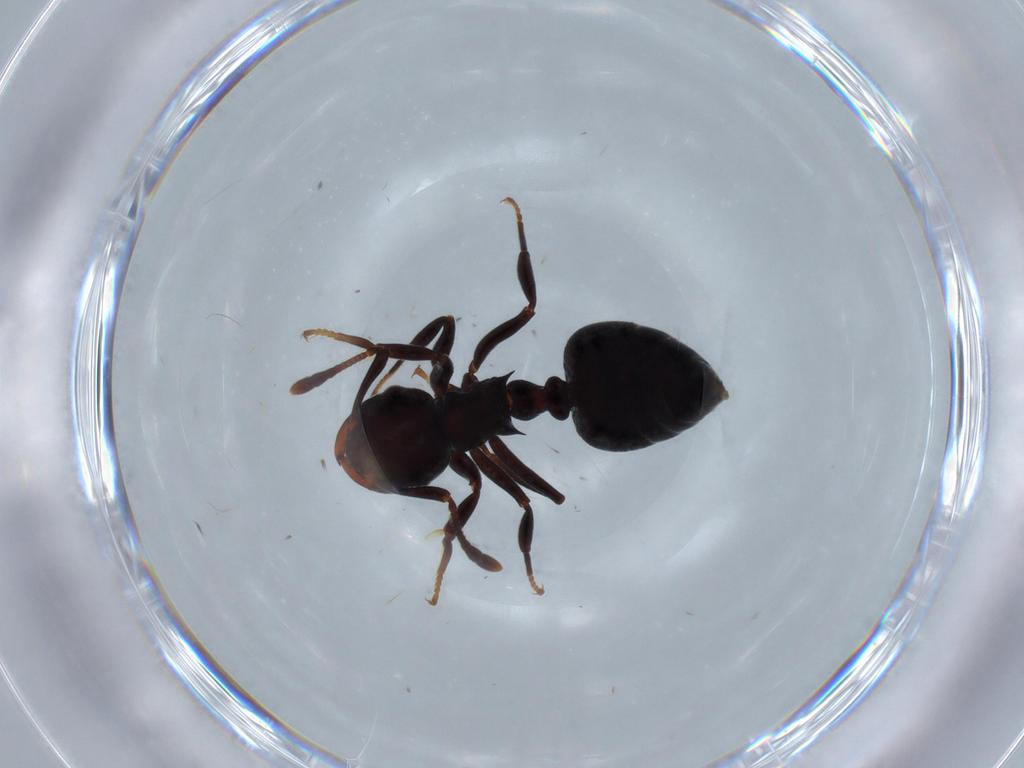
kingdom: Animalia
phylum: Arthropoda
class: Insecta
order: Hymenoptera
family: Formicidae
